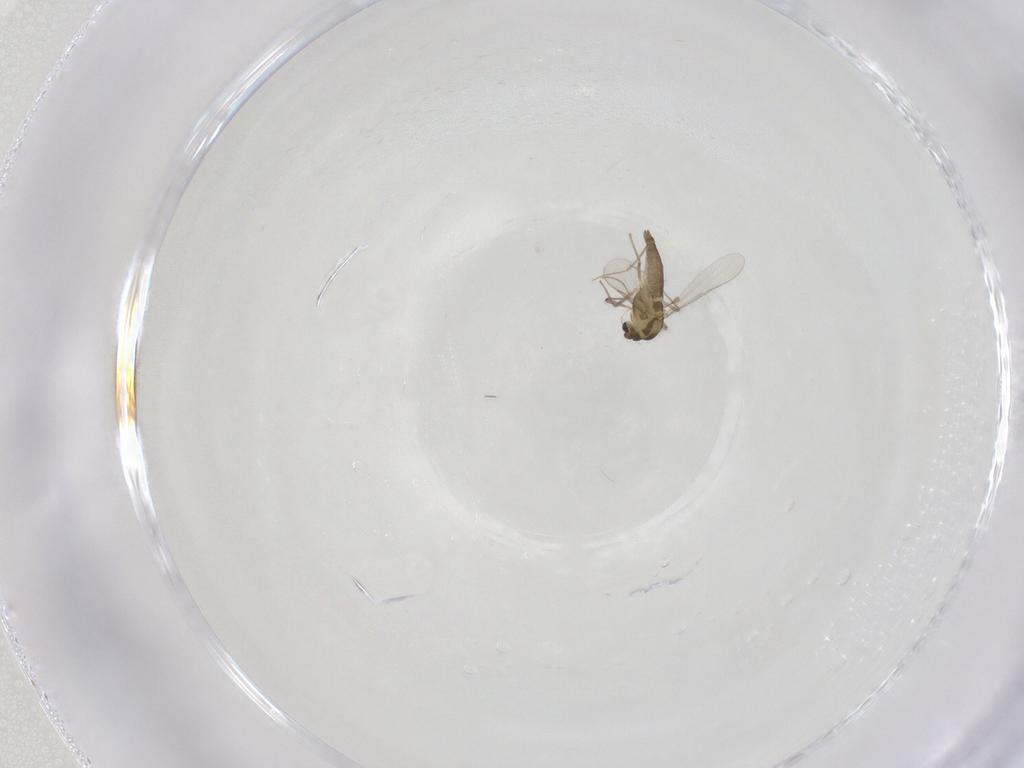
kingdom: Animalia
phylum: Arthropoda
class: Insecta
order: Diptera
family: Chironomidae
